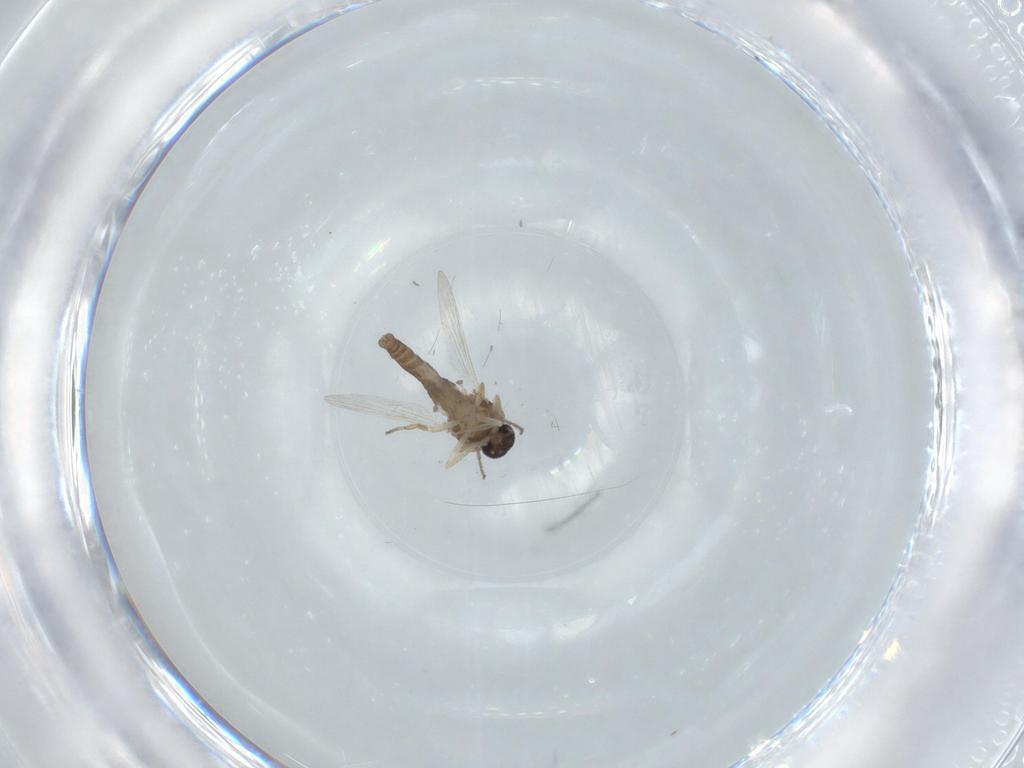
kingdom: Animalia
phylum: Arthropoda
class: Insecta
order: Diptera
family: Ceratopogonidae
